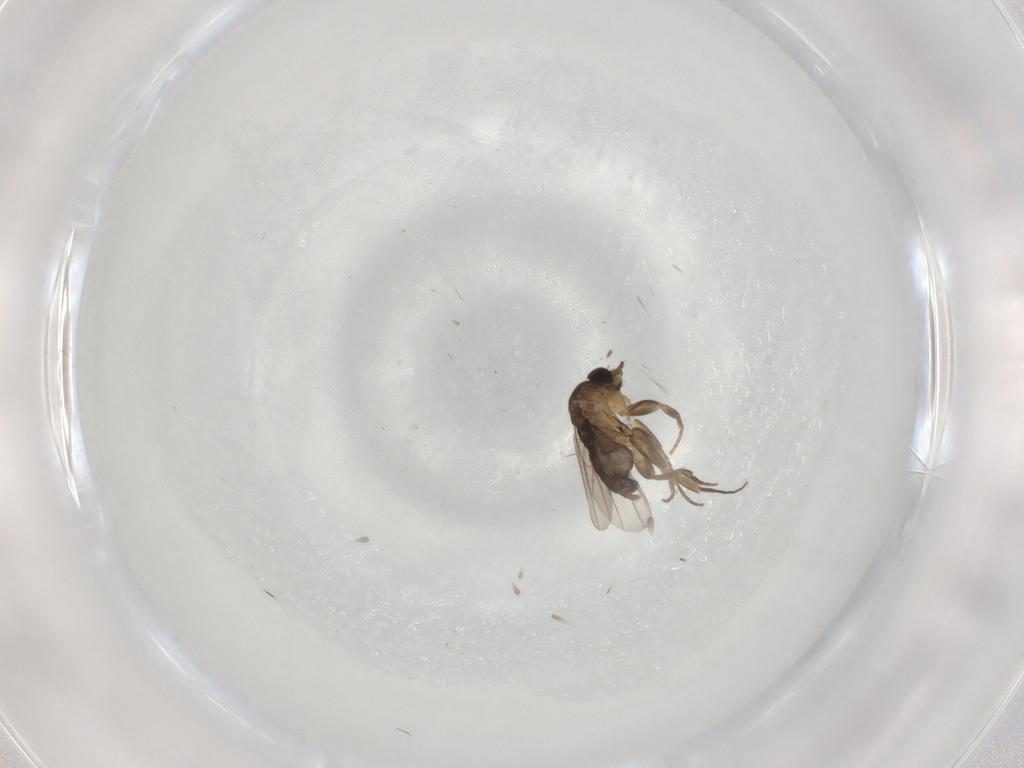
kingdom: Animalia
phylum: Arthropoda
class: Insecta
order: Diptera
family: Phoridae
